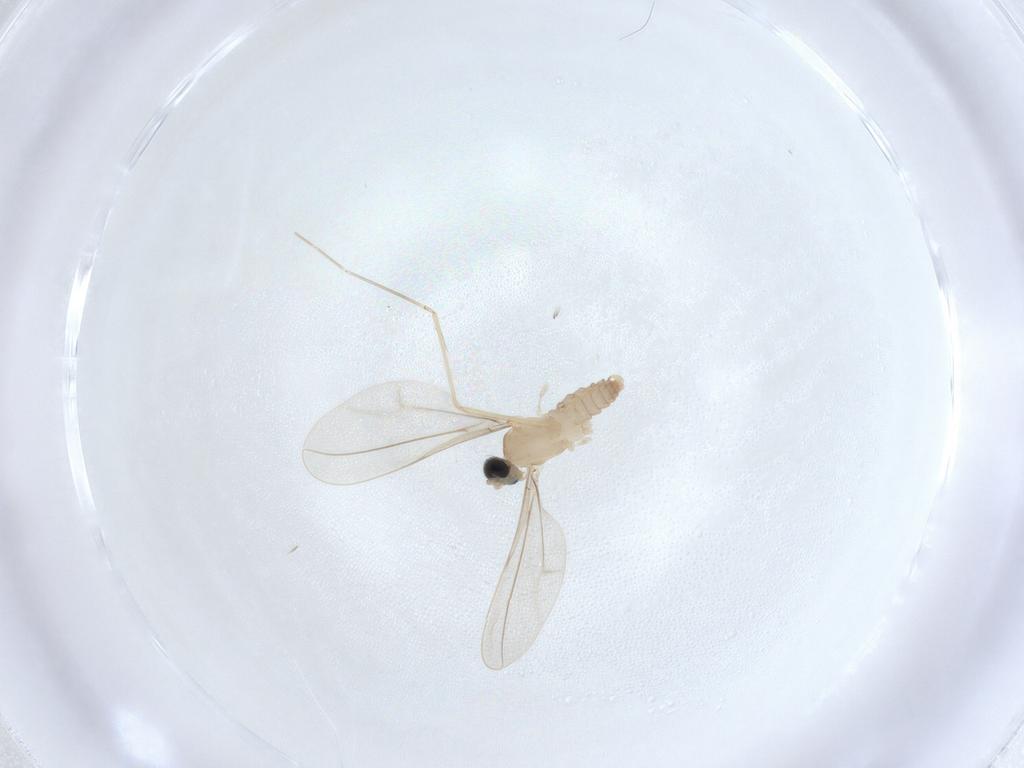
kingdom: Animalia
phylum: Arthropoda
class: Insecta
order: Diptera
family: Cecidomyiidae
